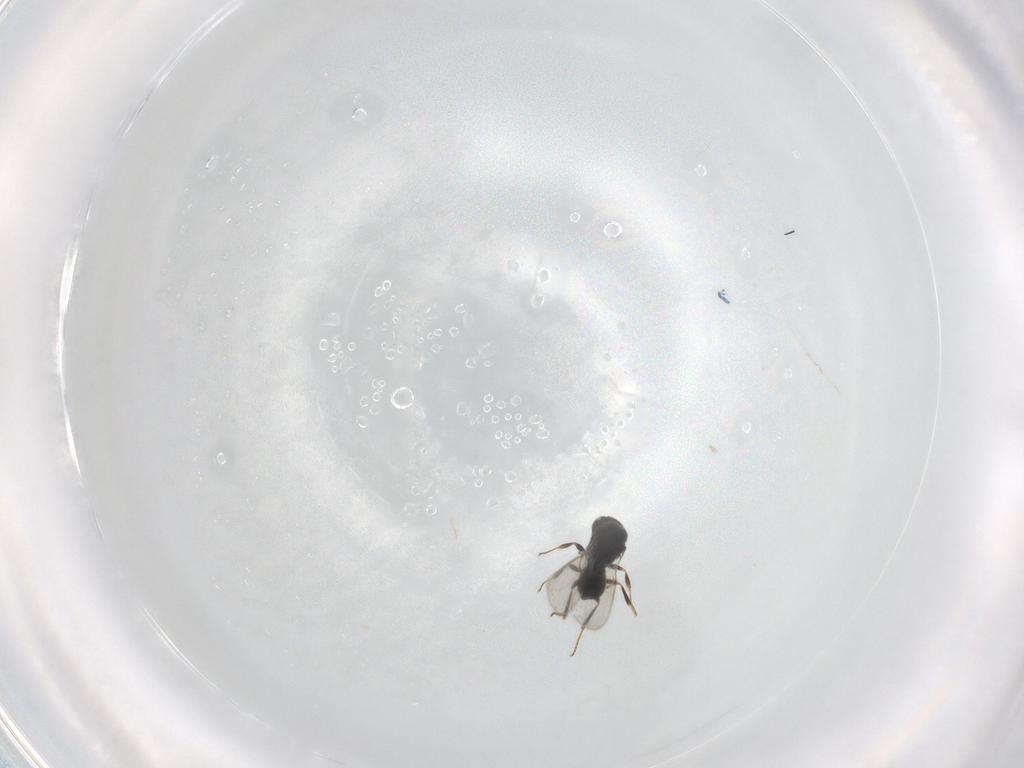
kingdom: Animalia
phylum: Arthropoda
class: Insecta
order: Hymenoptera
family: Scelionidae
